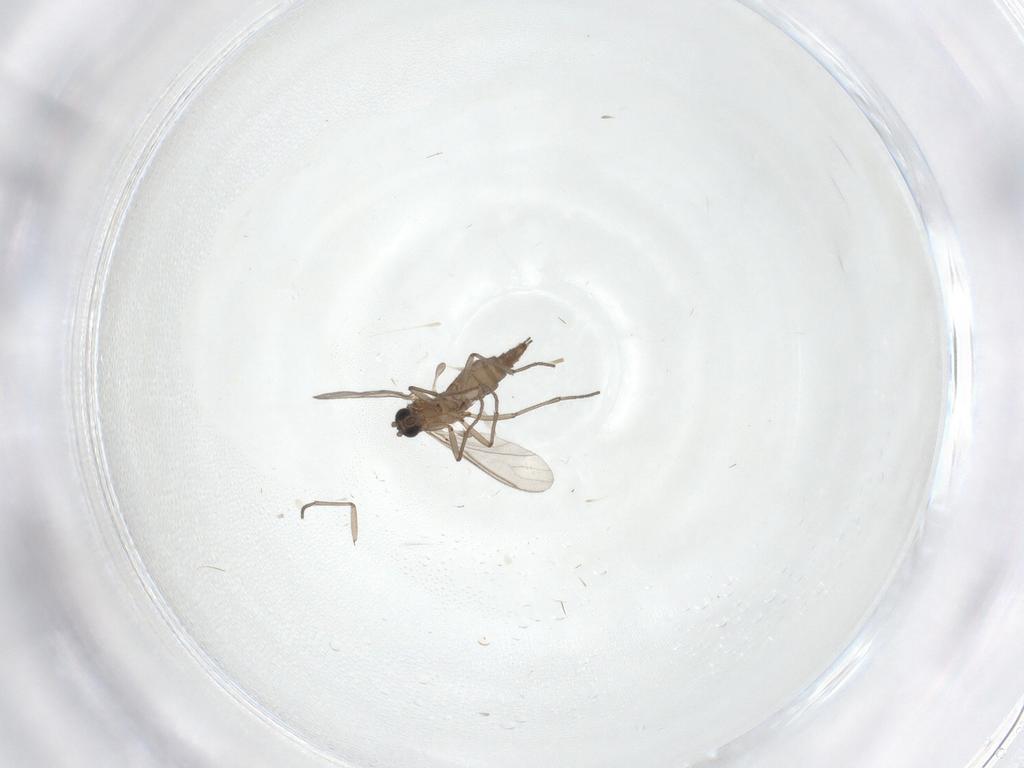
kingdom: Animalia
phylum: Arthropoda
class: Insecta
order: Diptera
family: Sciaridae
